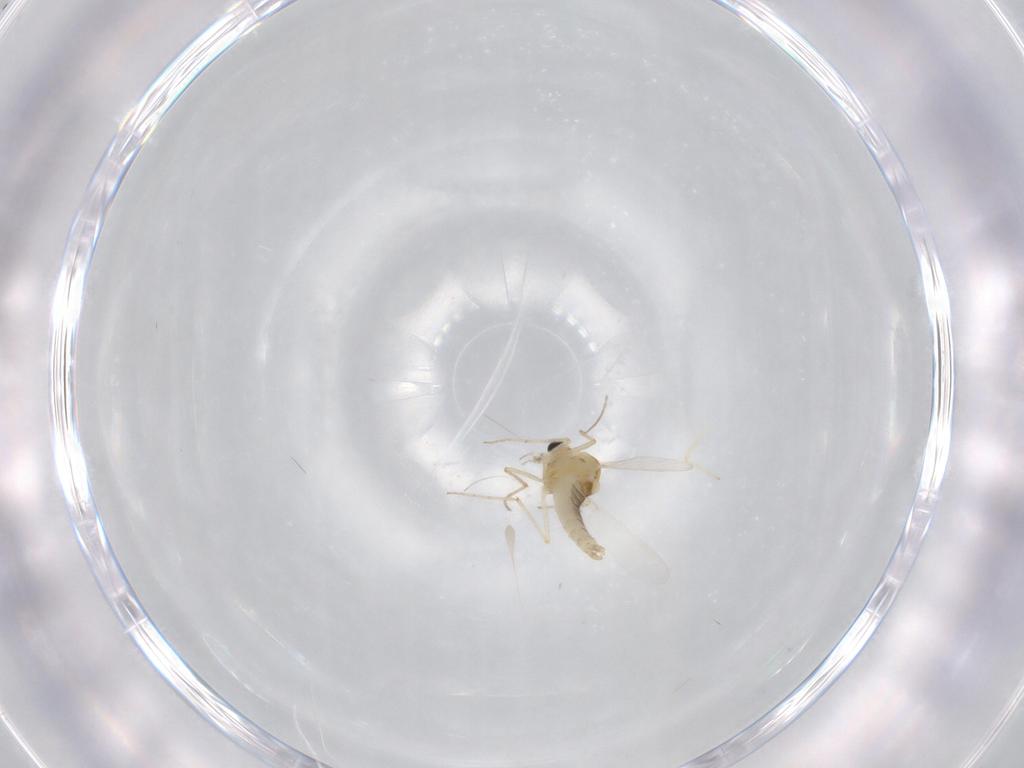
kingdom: Animalia
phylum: Arthropoda
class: Insecta
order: Diptera
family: Chironomidae
